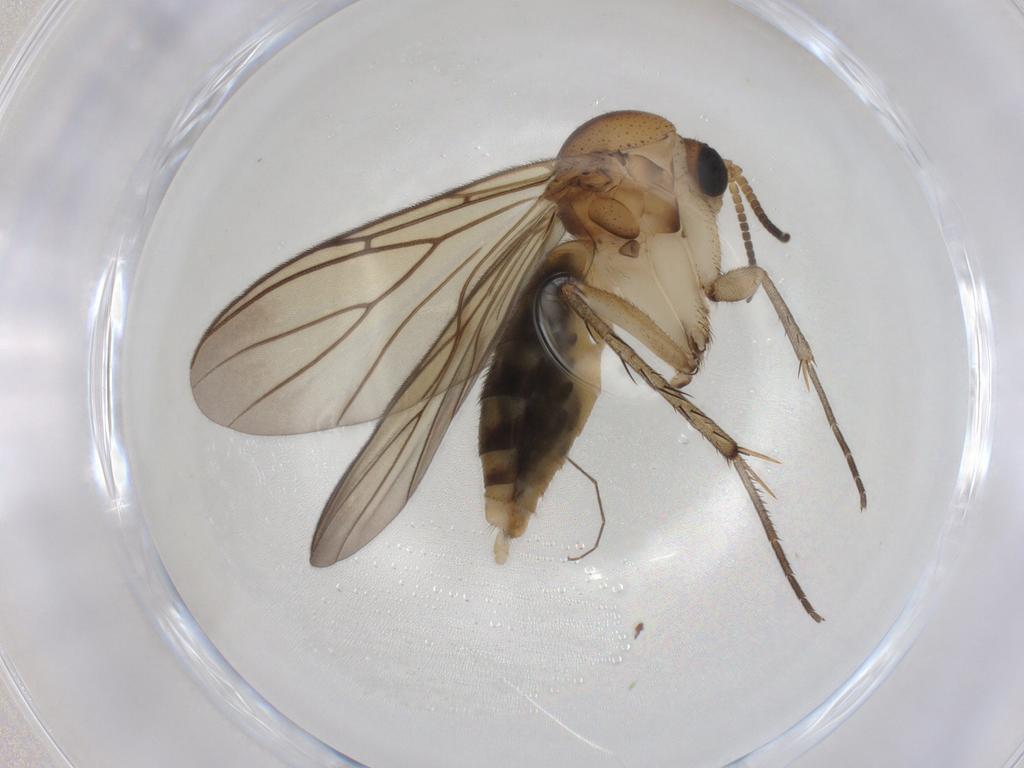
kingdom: Animalia
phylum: Arthropoda
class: Insecta
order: Diptera
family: Mycetophilidae
